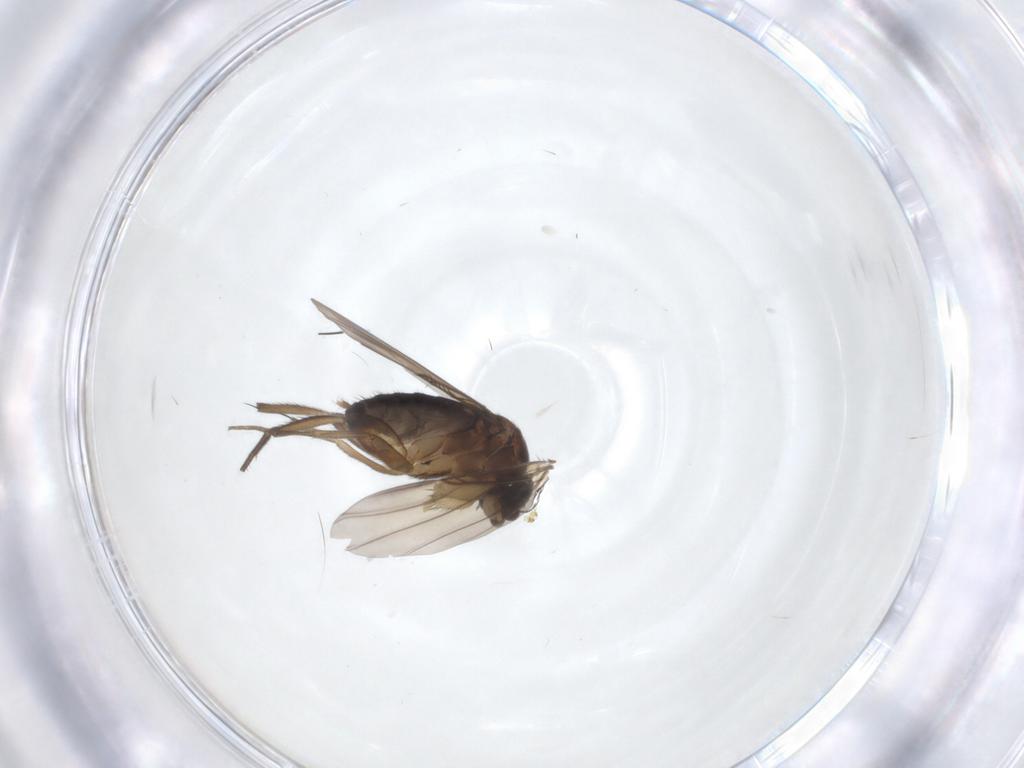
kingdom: Animalia
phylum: Arthropoda
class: Insecta
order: Diptera
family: Phoridae
